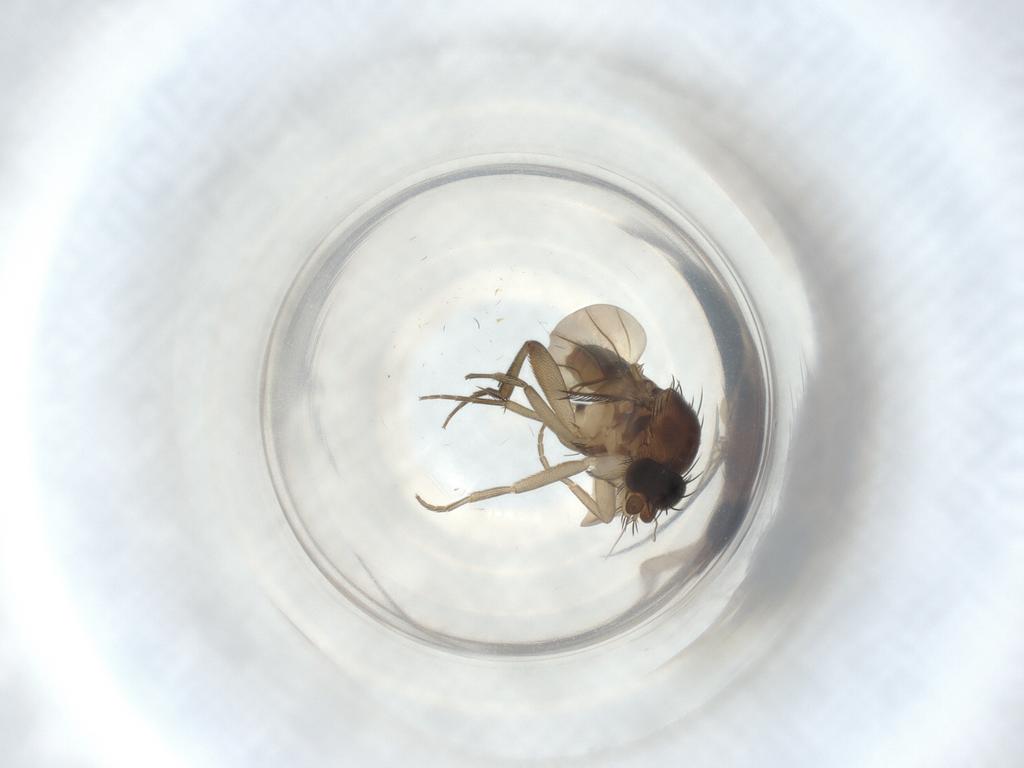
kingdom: Animalia
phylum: Arthropoda
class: Insecta
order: Diptera
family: Phoridae
